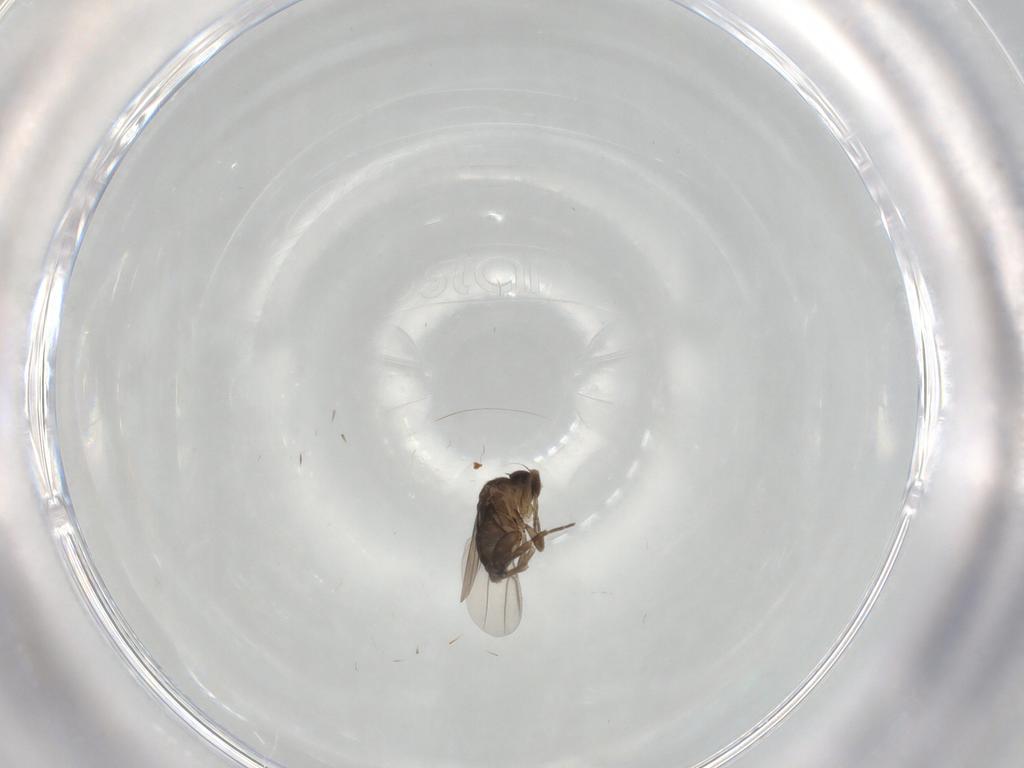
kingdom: Animalia
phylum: Arthropoda
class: Insecta
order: Diptera
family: Phoridae
